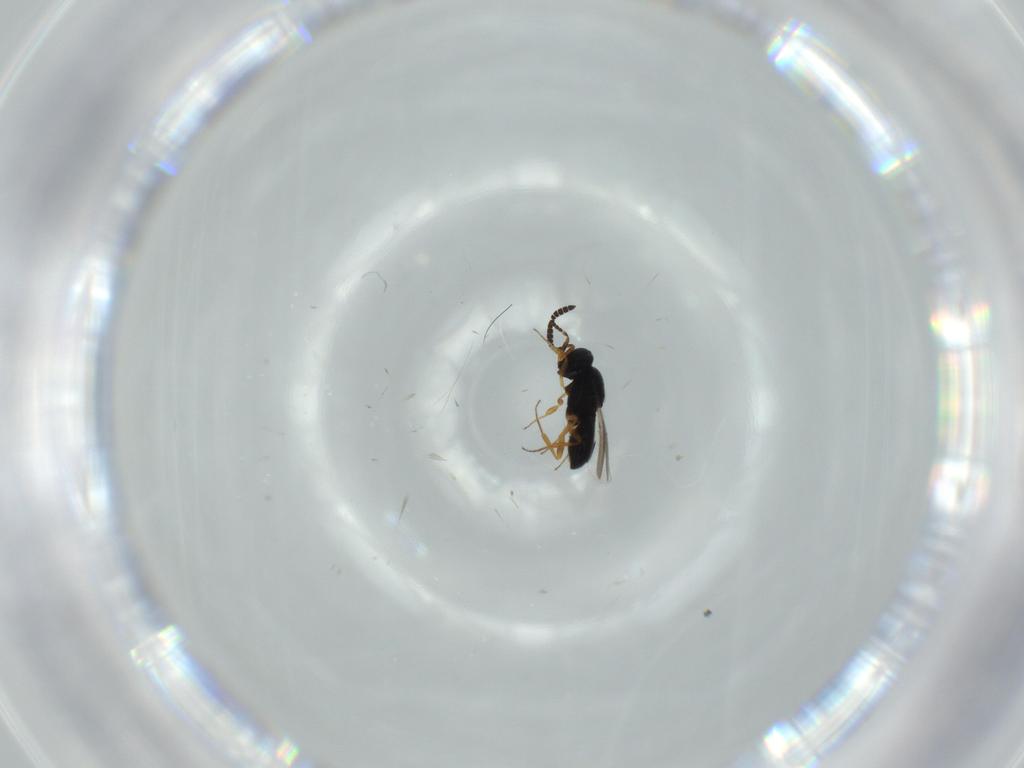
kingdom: Animalia
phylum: Arthropoda
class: Insecta
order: Hymenoptera
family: Scelionidae
